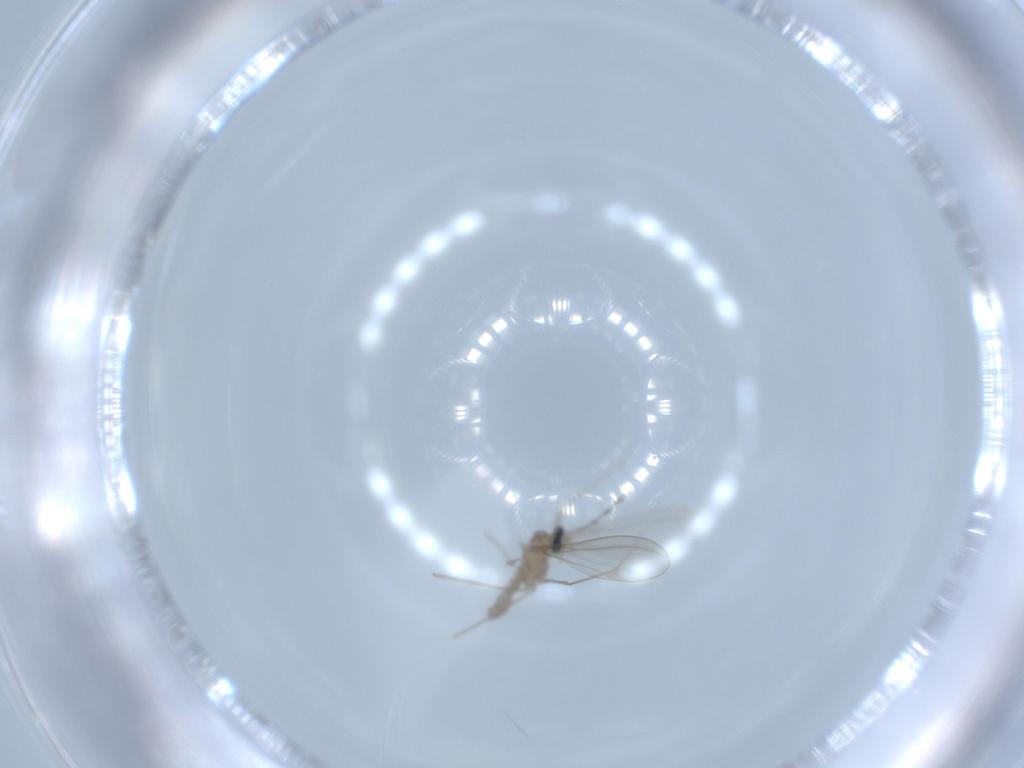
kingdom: Animalia
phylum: Arthropoda
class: Insecta
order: Diptera
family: Cecidomyiidae
